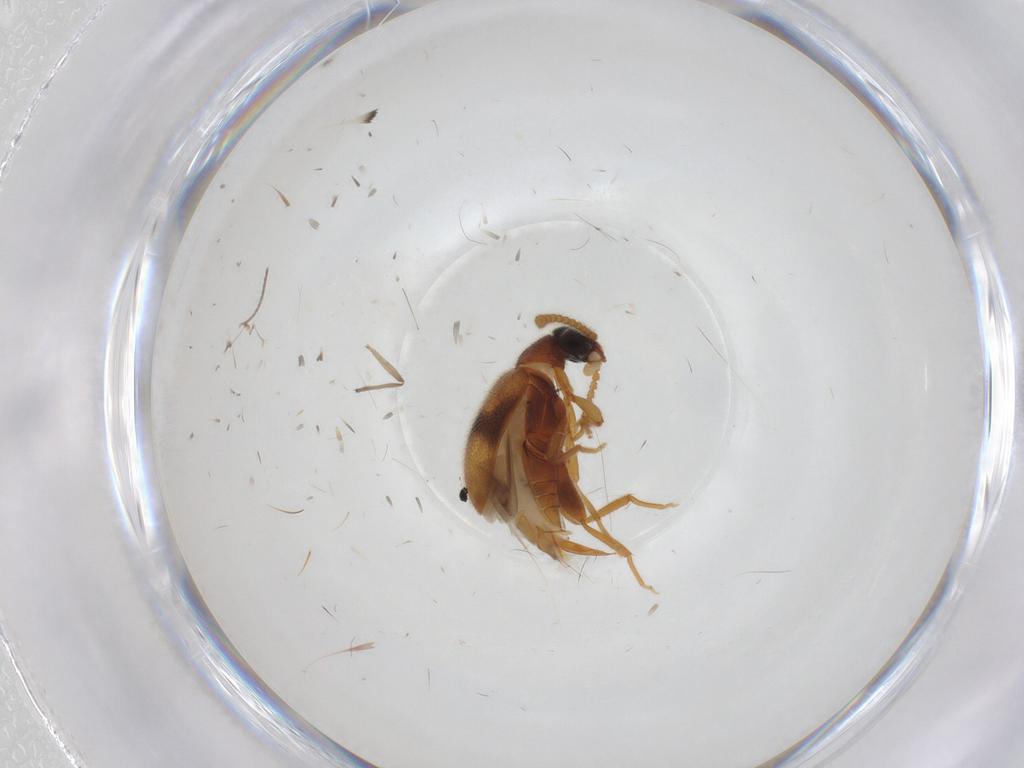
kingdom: Animalia
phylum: Arthropoda
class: Insecta
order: Coleoptera
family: Aderidae
